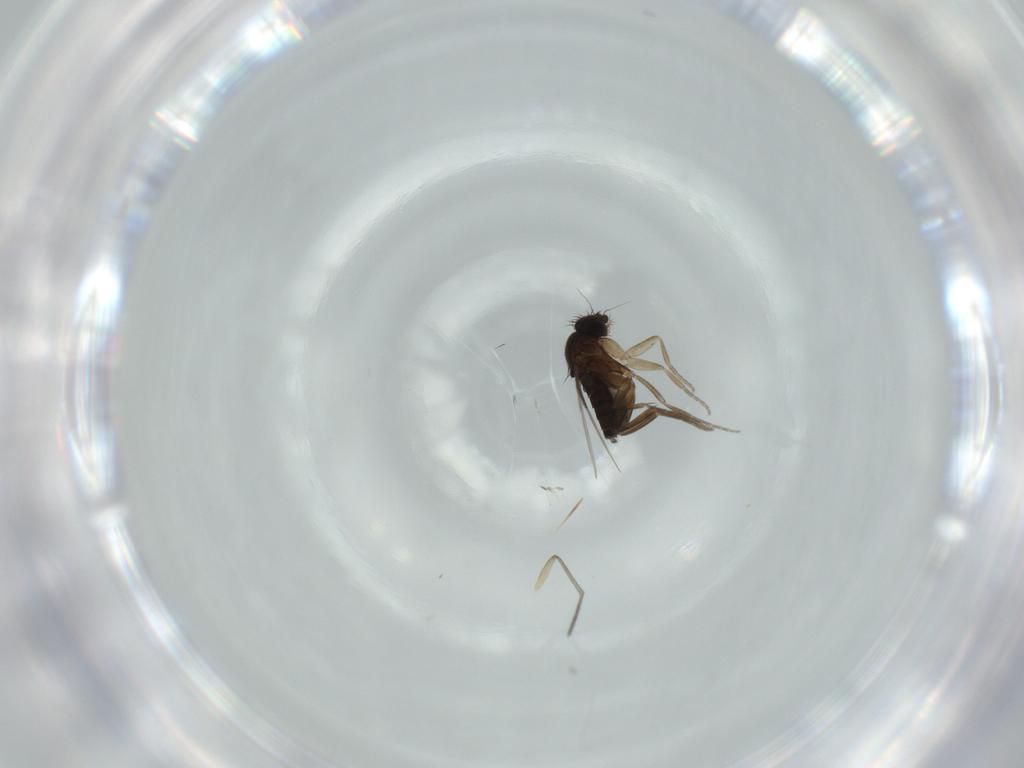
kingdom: Animalia
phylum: Arthropoda
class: Insecta
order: Diptera
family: Phoridae
